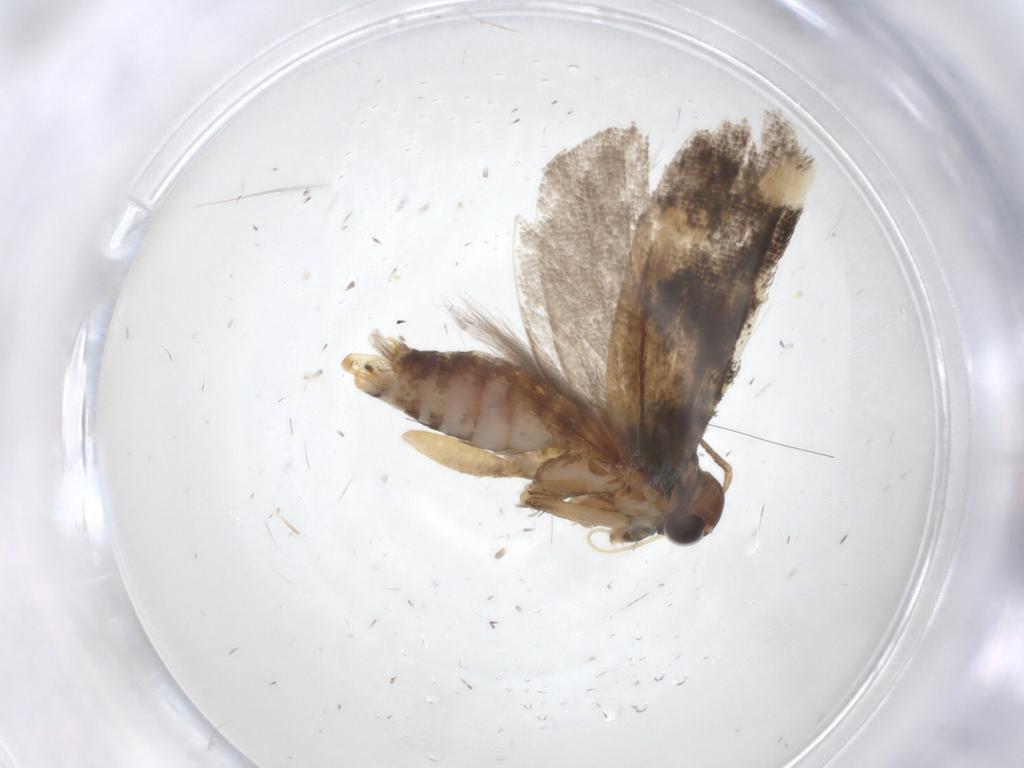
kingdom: Animalia
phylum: Arthropoda
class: Insecta
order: Lepidoptera
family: Gelechiidae
